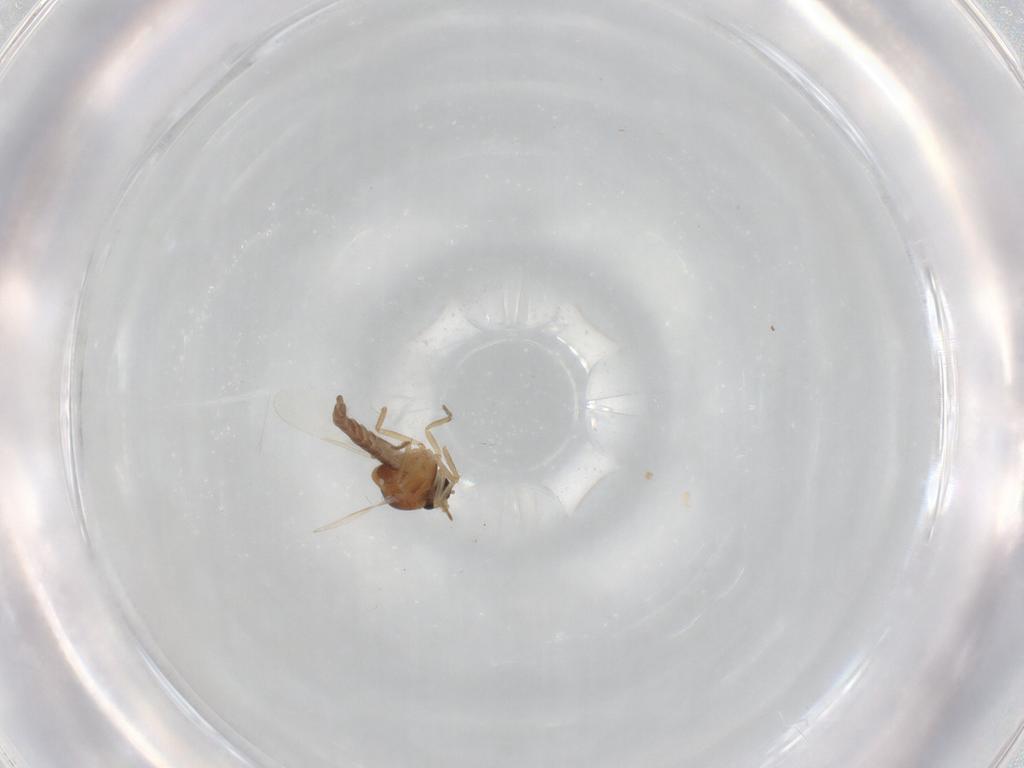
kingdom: Animalia
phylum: Arthropoda
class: Insecta
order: Diptera
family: Ceratopogonidae
